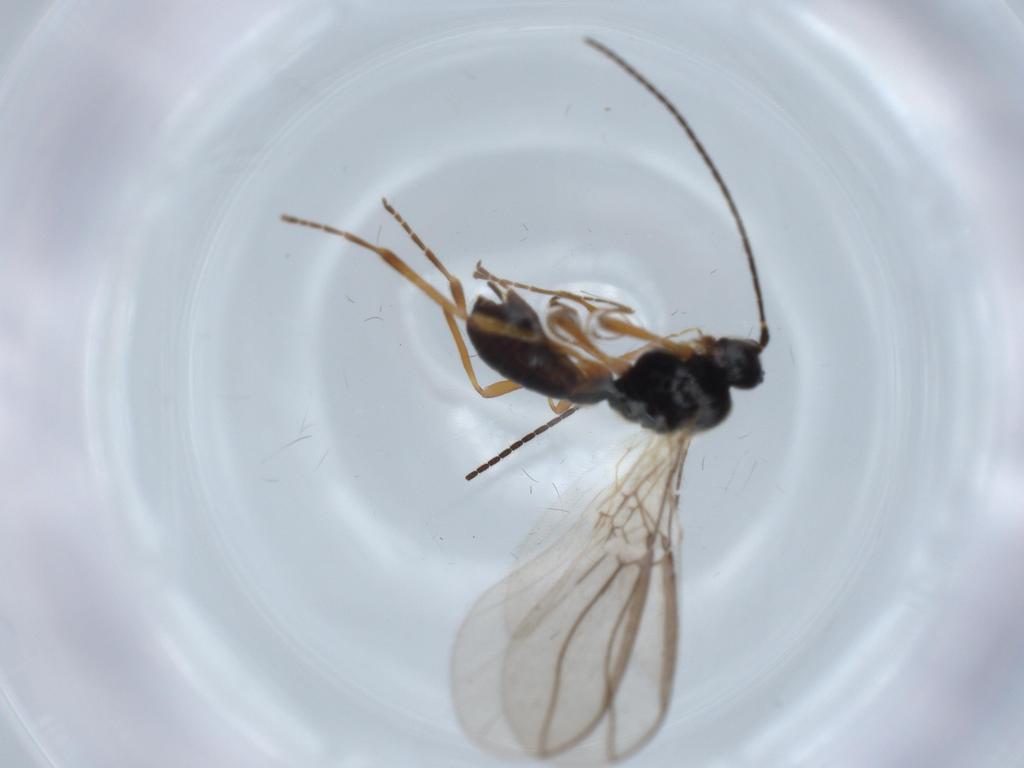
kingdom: Animalia
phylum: Arthropoda
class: Insecta
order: Hymenoptera
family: Braconidae
